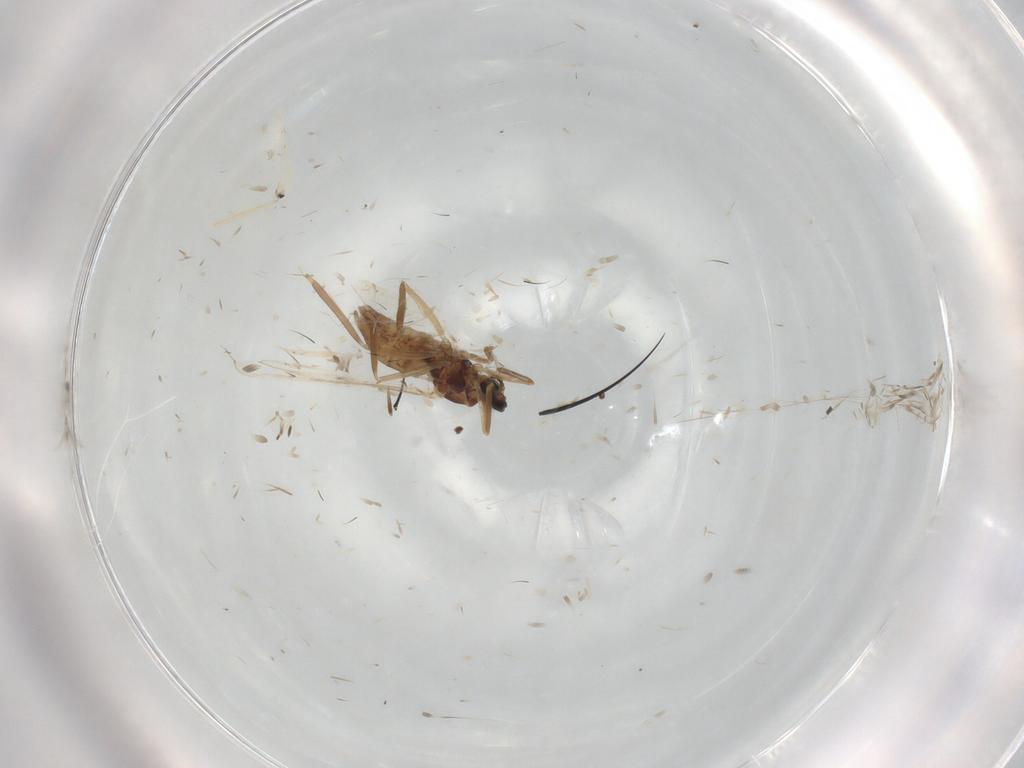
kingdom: Animalia
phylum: Arthropoda
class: Insecta
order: Diptera
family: Cecidomyiidae
